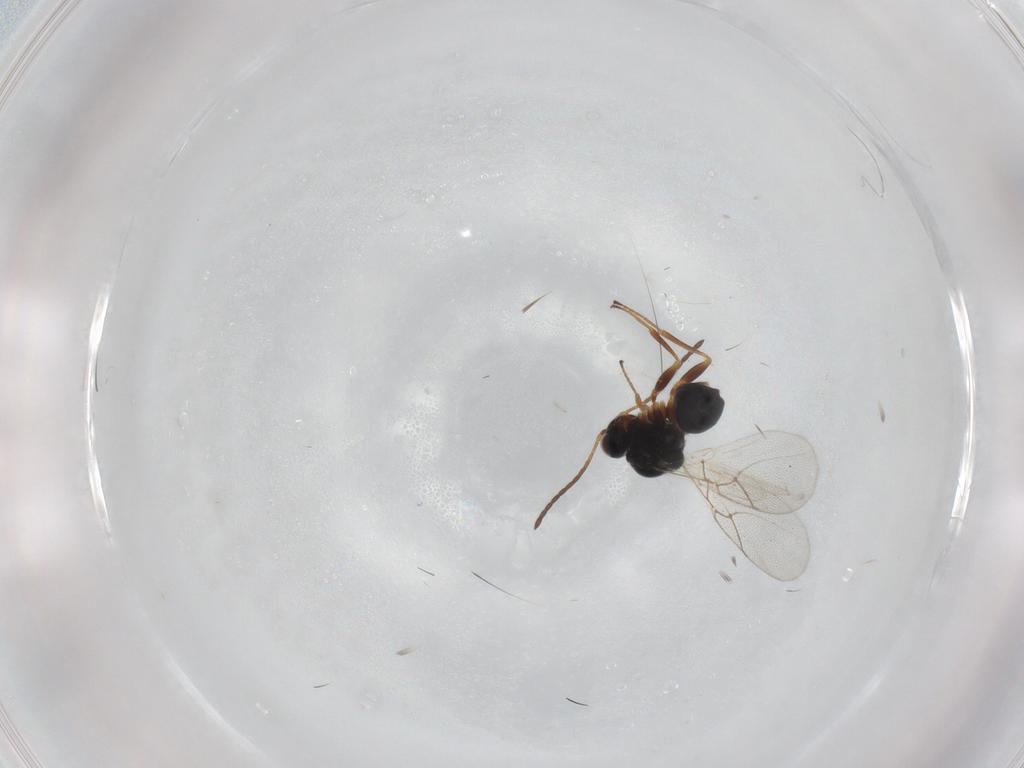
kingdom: Animalia
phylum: Arthropoda
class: Insecta
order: Hymenoptera
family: Figitidae
